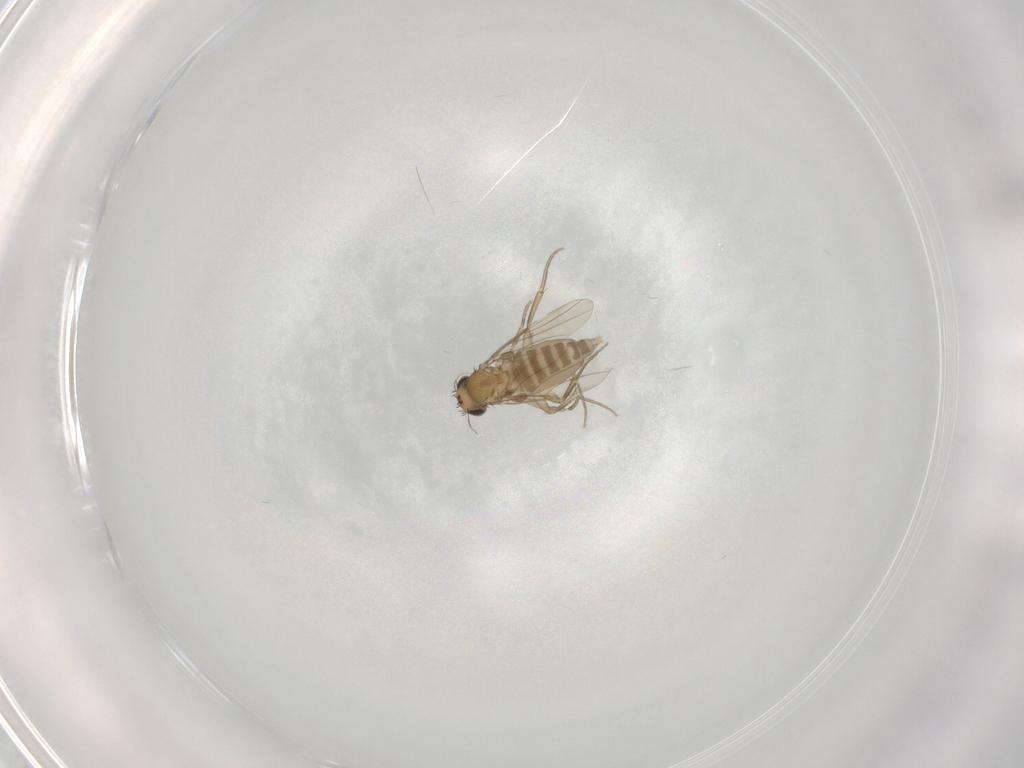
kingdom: Animalia
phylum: Arthropoda
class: Insecta
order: Diptera
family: Phoridae
